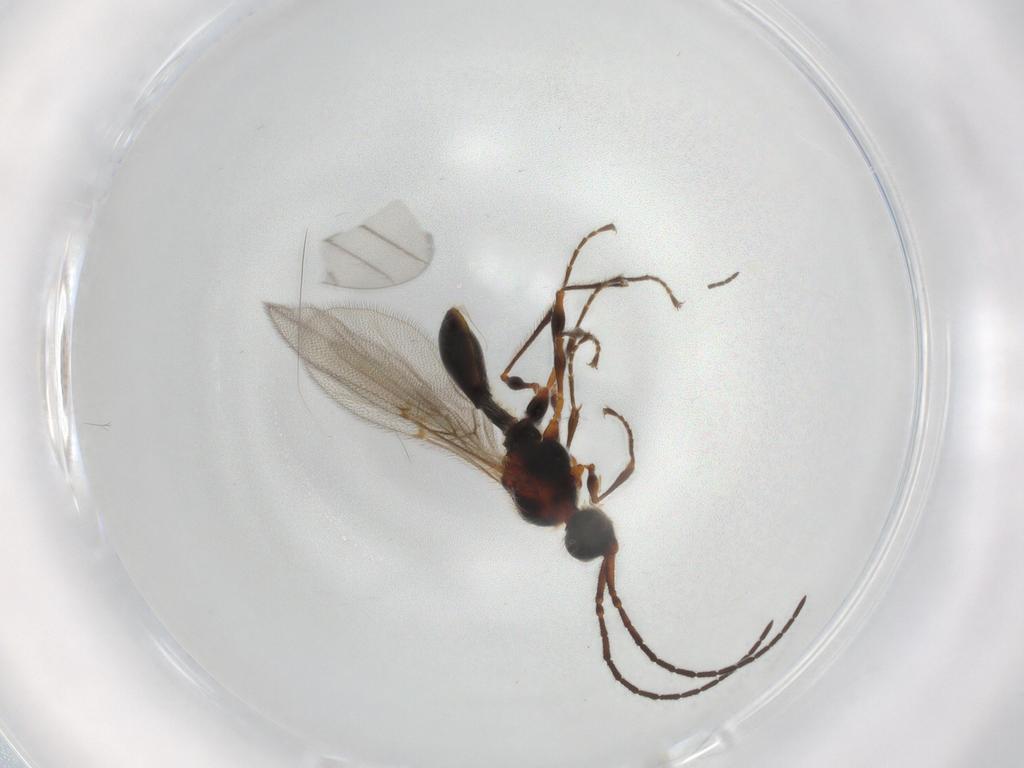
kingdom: Animalia
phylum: Arthropoda
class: Insecta
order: Hymenoptera
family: Diapriidae
